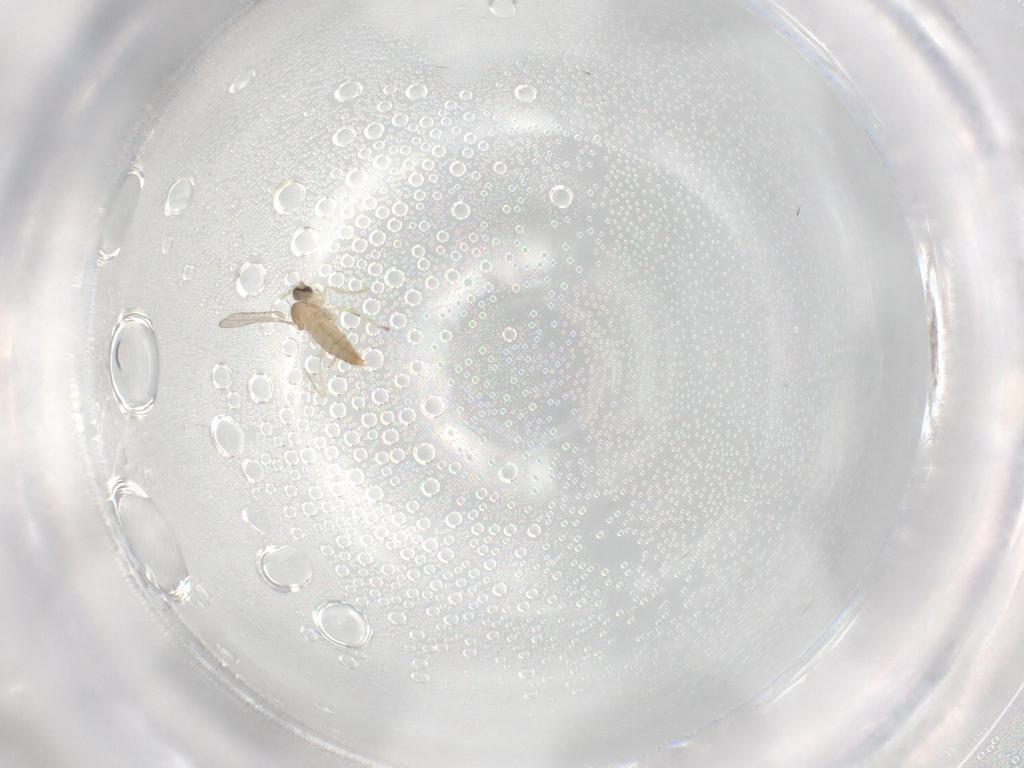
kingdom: Animalia
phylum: Arthropoda
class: Insecta
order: Diptera
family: Cecidomyiidae
